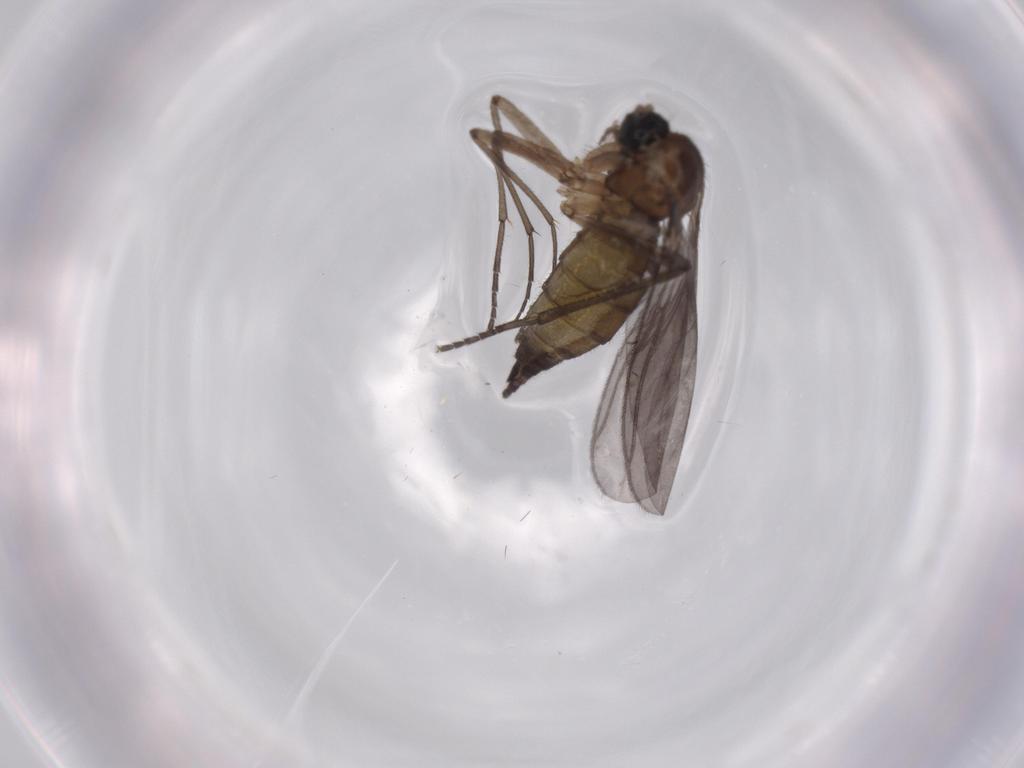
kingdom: Animalia
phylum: Arthropoda
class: Insecta
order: Diptera
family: Sciaridae
